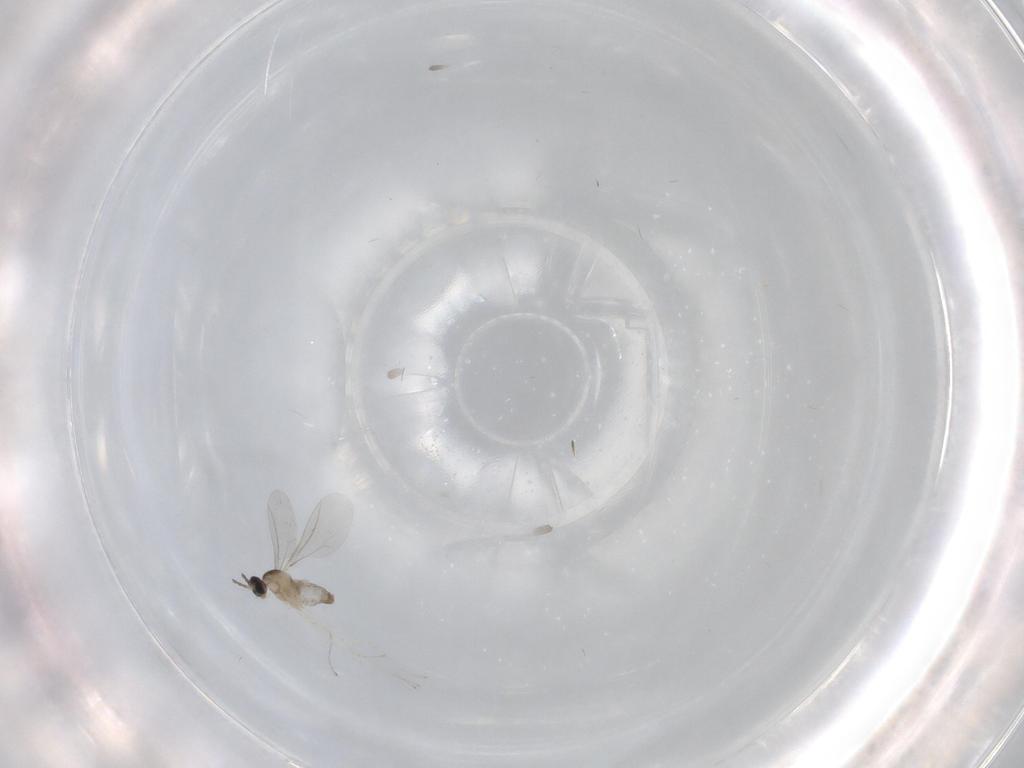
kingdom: Animalia
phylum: Arthropoda
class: Insecta
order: Diptera
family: Cecidomyiidae
